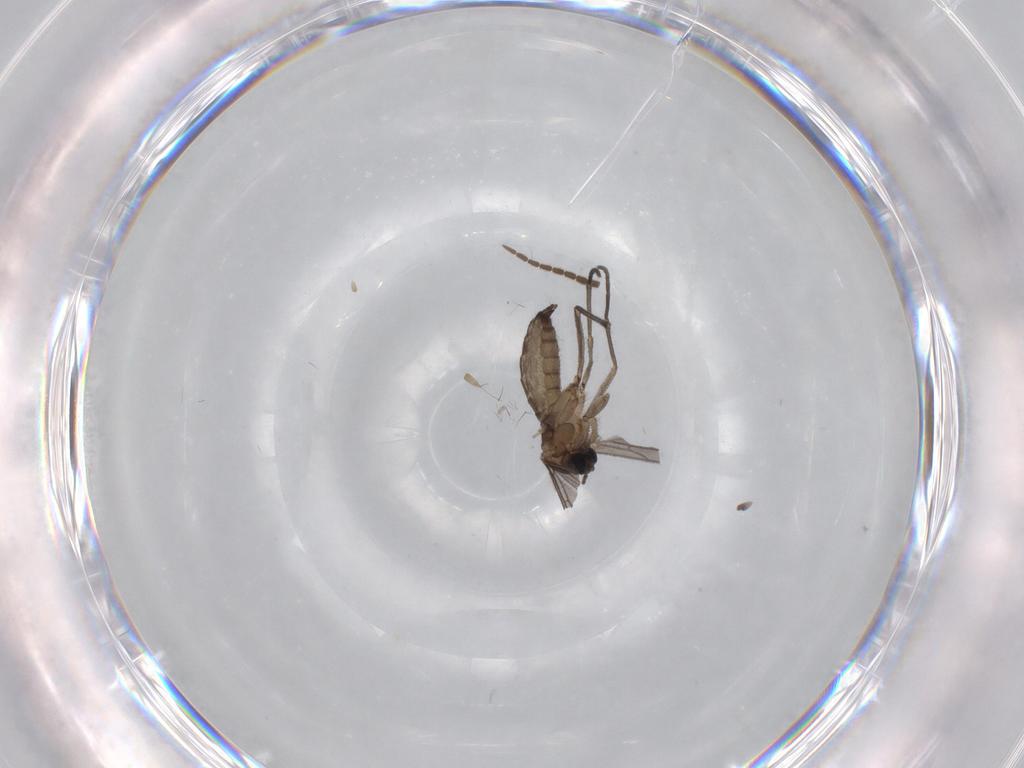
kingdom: Animalia
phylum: Arthropoda
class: Insecta
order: Diptera
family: Sciaridae
